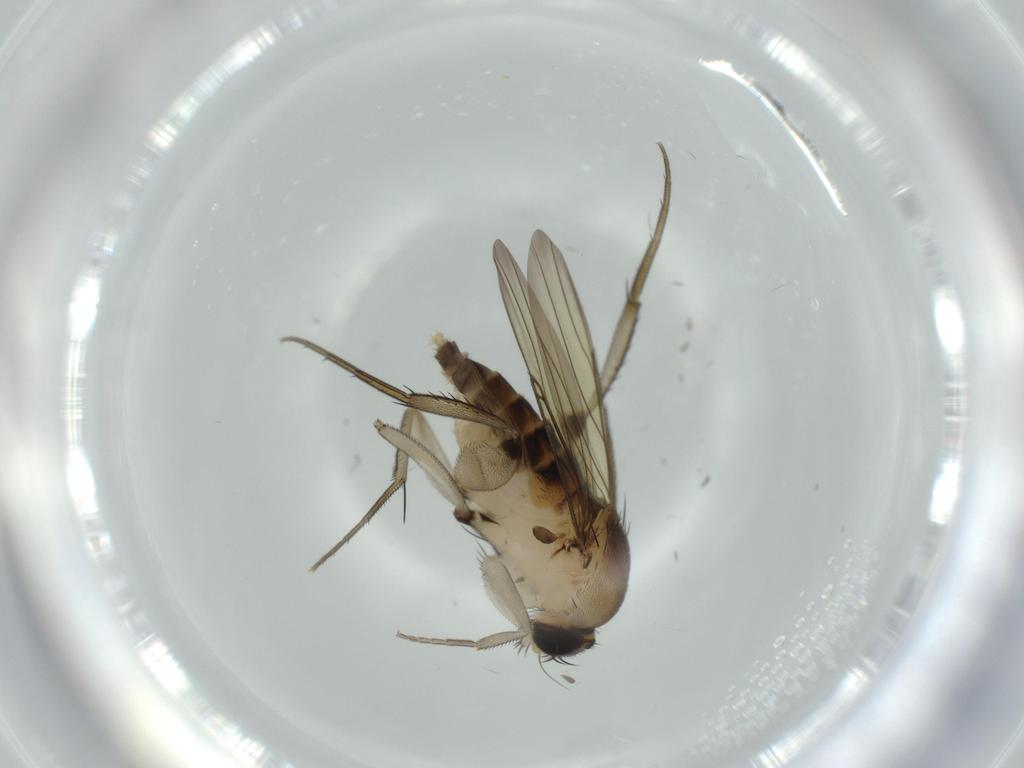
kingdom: Animalia
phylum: Arthropoda
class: Insecta
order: Diptera
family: Phoridae
